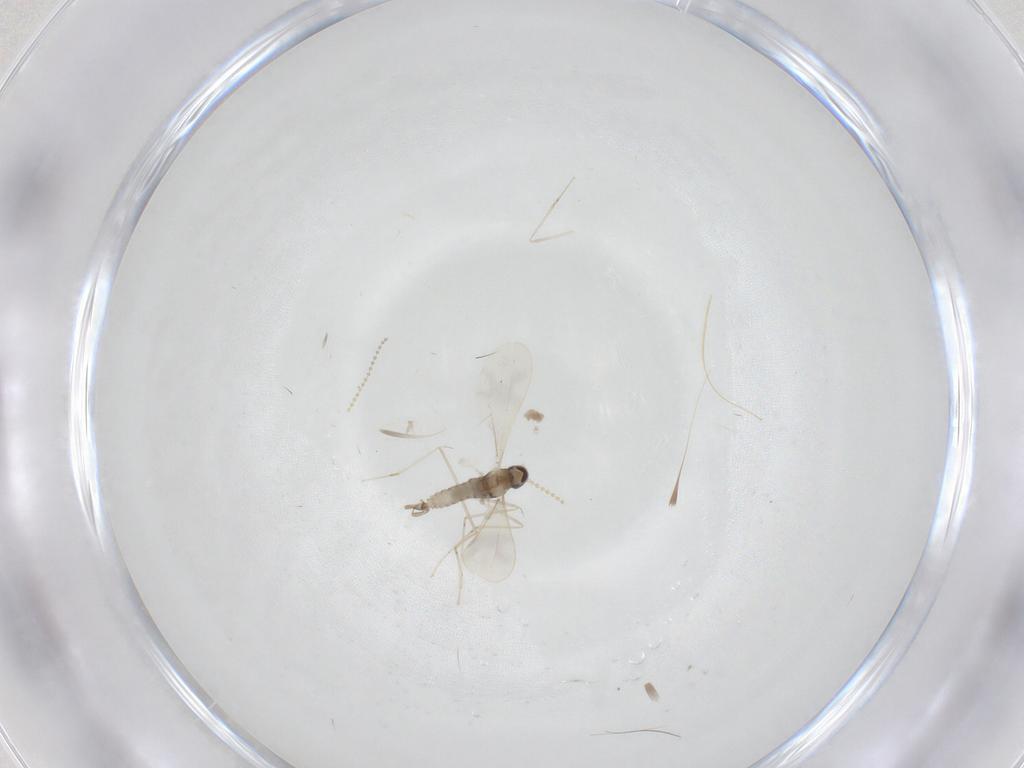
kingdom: Animalia
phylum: Arthropoda
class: Insecta
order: Diptera
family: Cecidomyiidae
